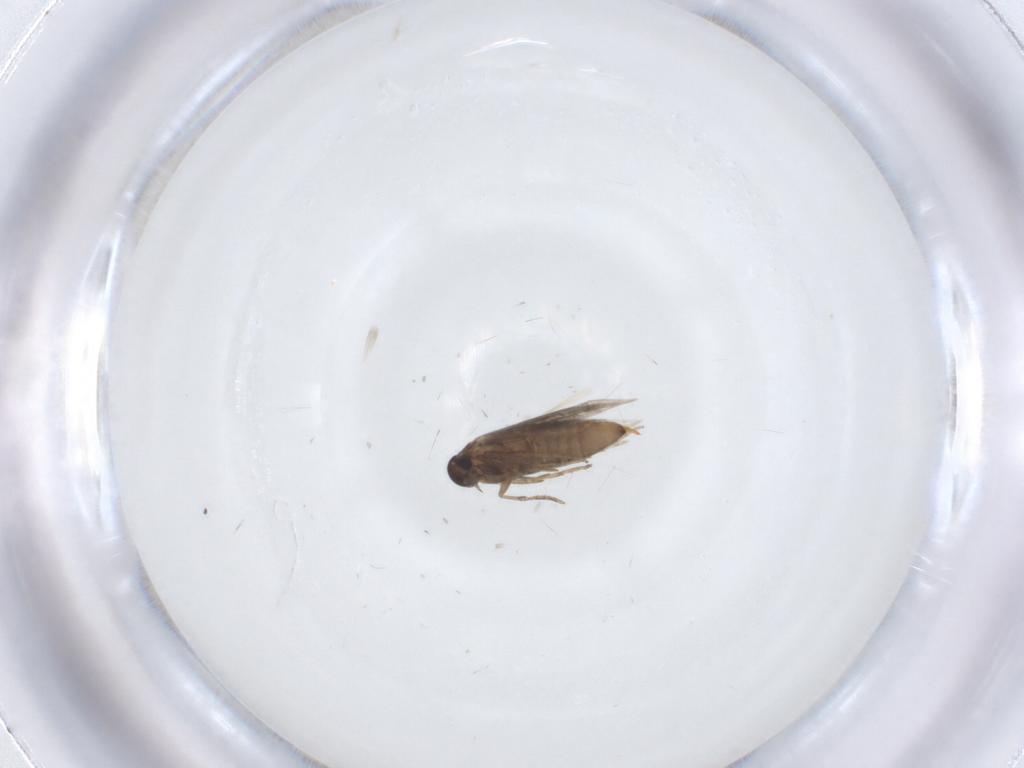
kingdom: Animalia
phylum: Arthropoda
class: Insecta
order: Lepidoptera
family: Heliozelidae
